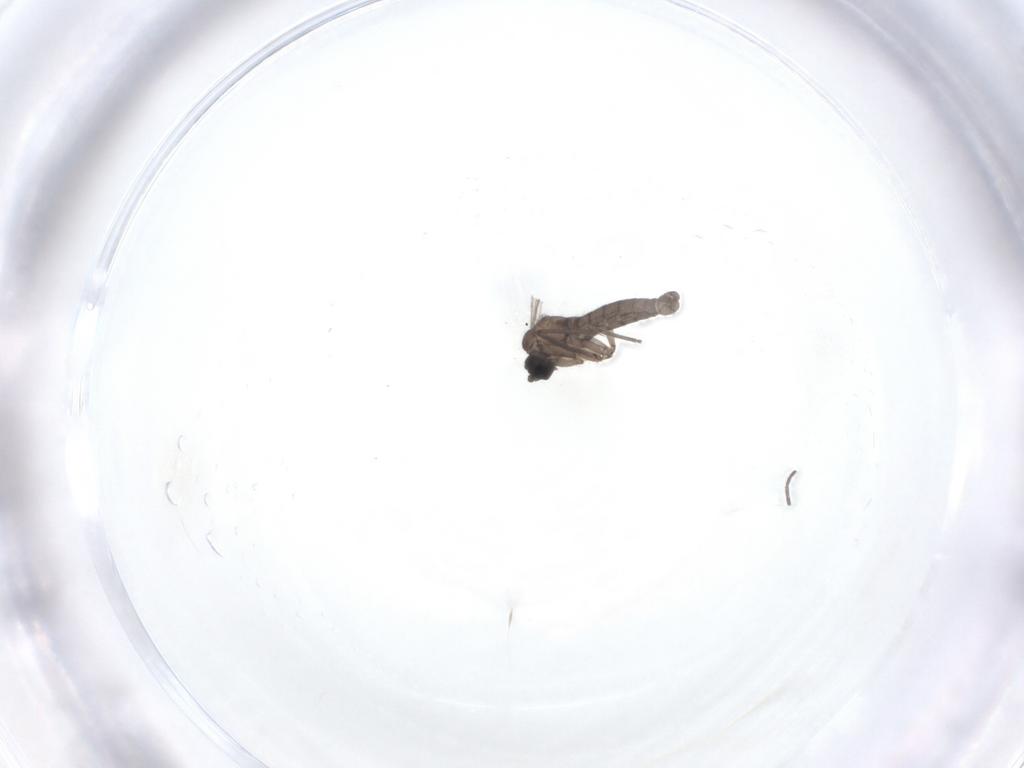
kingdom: Animalia
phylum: Arthropoda
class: Insecta
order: Diptera
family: Sciaridae
